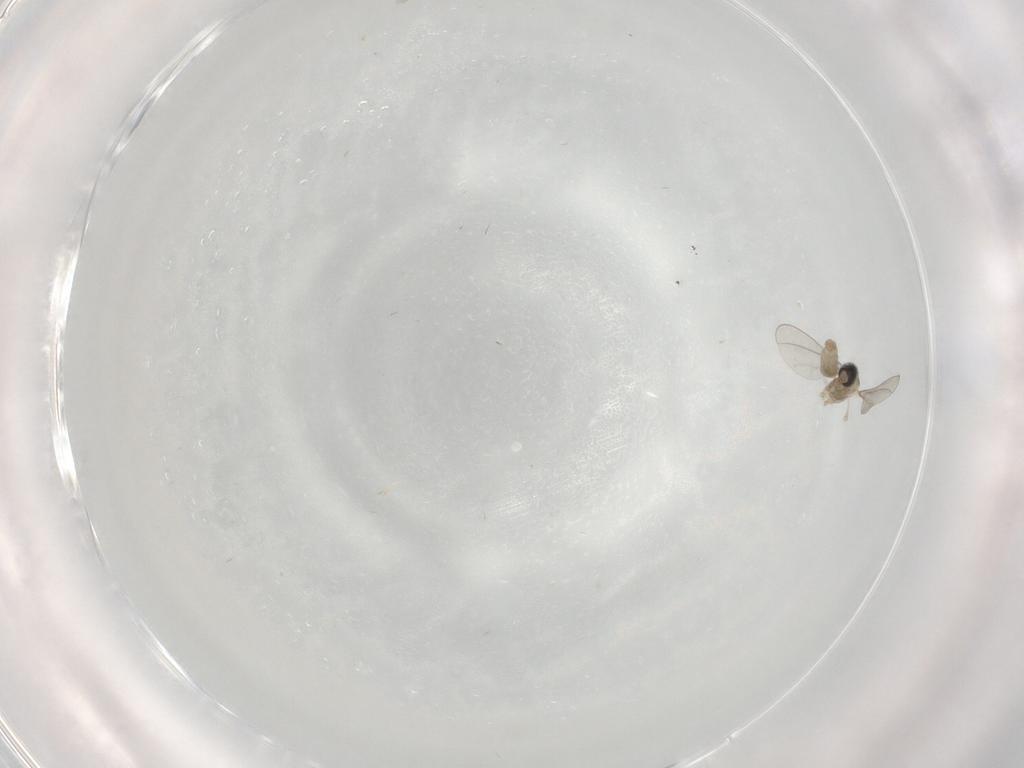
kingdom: Animalia
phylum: Arthropoda
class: Insecta
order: Diptera
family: Cecidomyiidae
